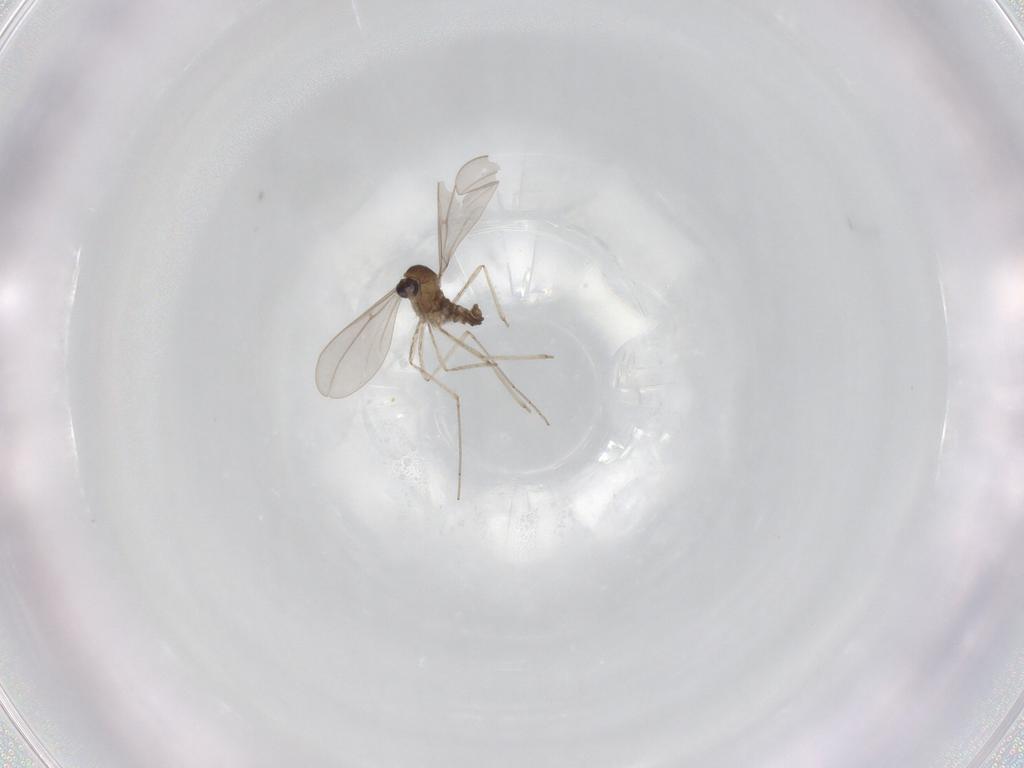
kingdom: Animalia
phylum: Arthropoda
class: Insecta
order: Diptera
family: Cecidomyiidae
